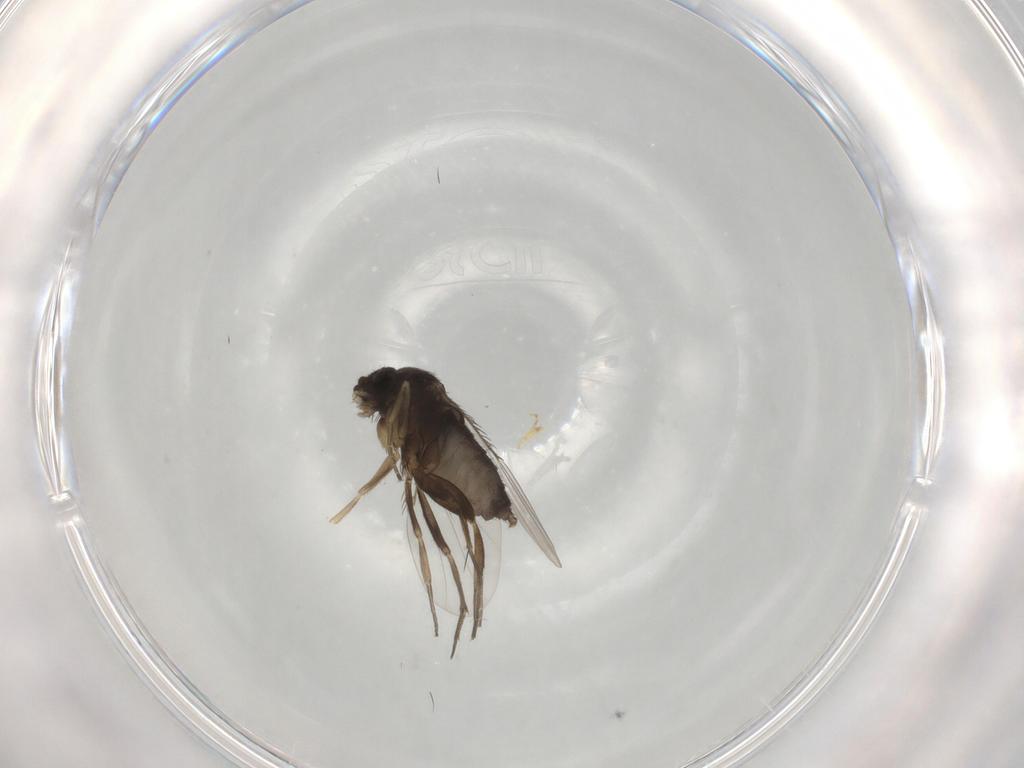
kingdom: Animalia
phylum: Arthropoda
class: Insecta
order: Diptera
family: Phoridae
